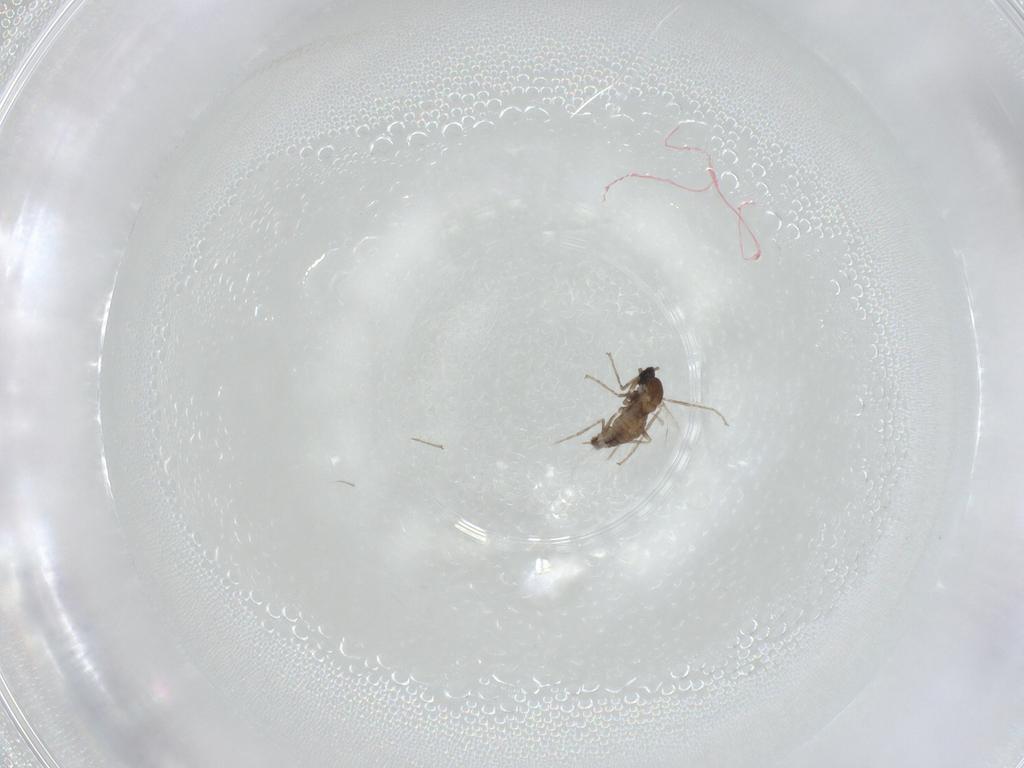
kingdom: Animalia
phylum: Arthropoda
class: Insecta
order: Diptera
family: Cecidomyiidae
